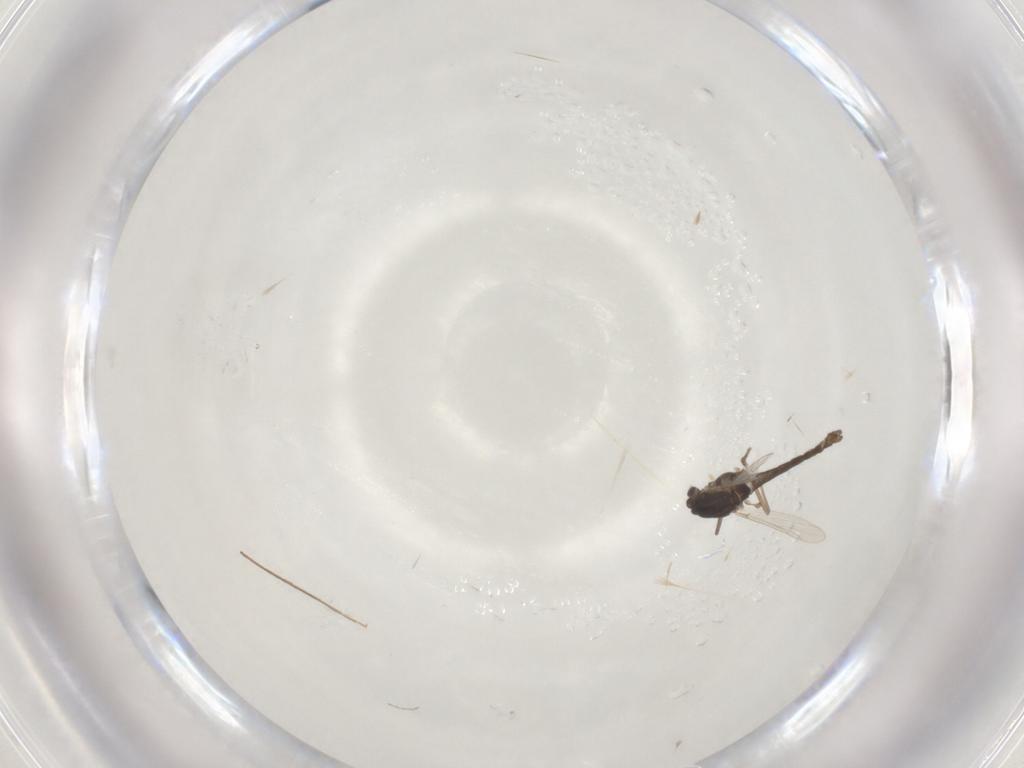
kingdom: Animalia
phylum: Arthropoda
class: Insecta
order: Diptera
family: Chironomidae
